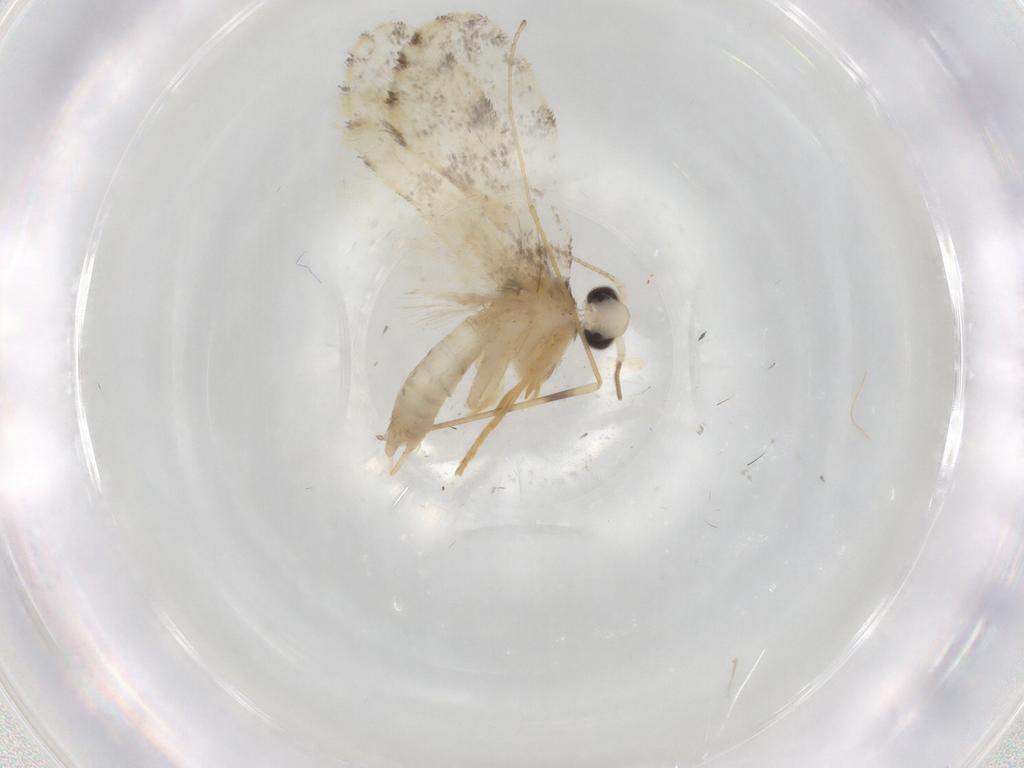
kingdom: Animalia
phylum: Arthropoda
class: Insecta
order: Lepidoptera
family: Psychidae
